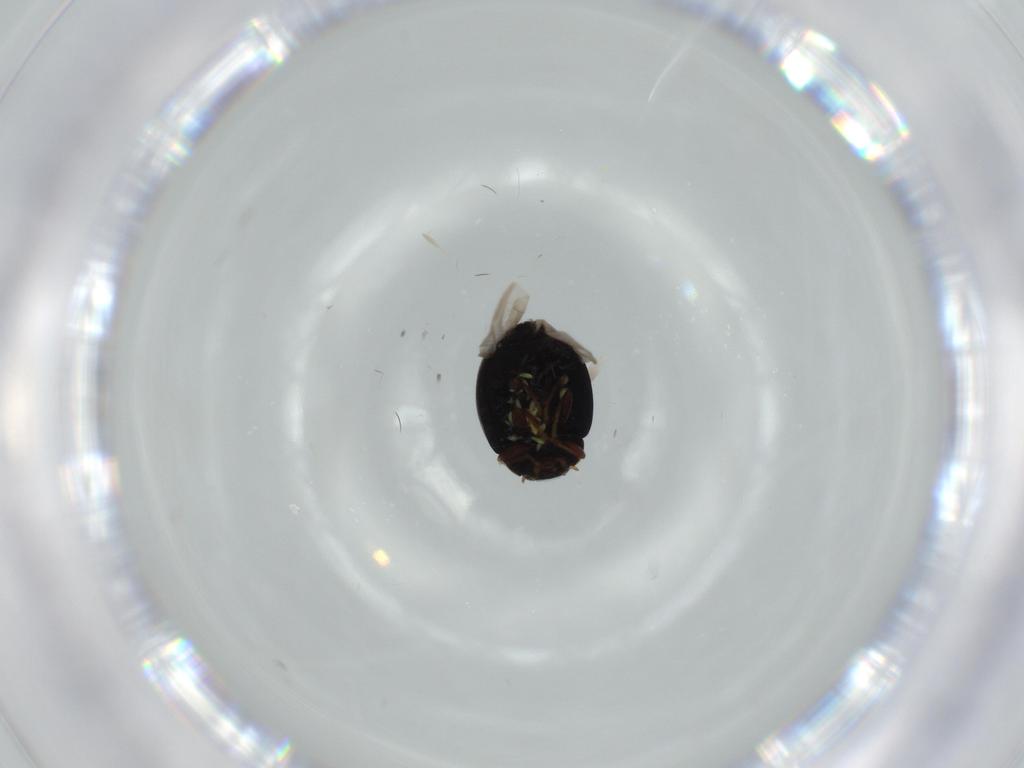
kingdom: Animalia
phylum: Arthropoda
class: Insecta
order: Coleoptera
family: Coccinellidae
